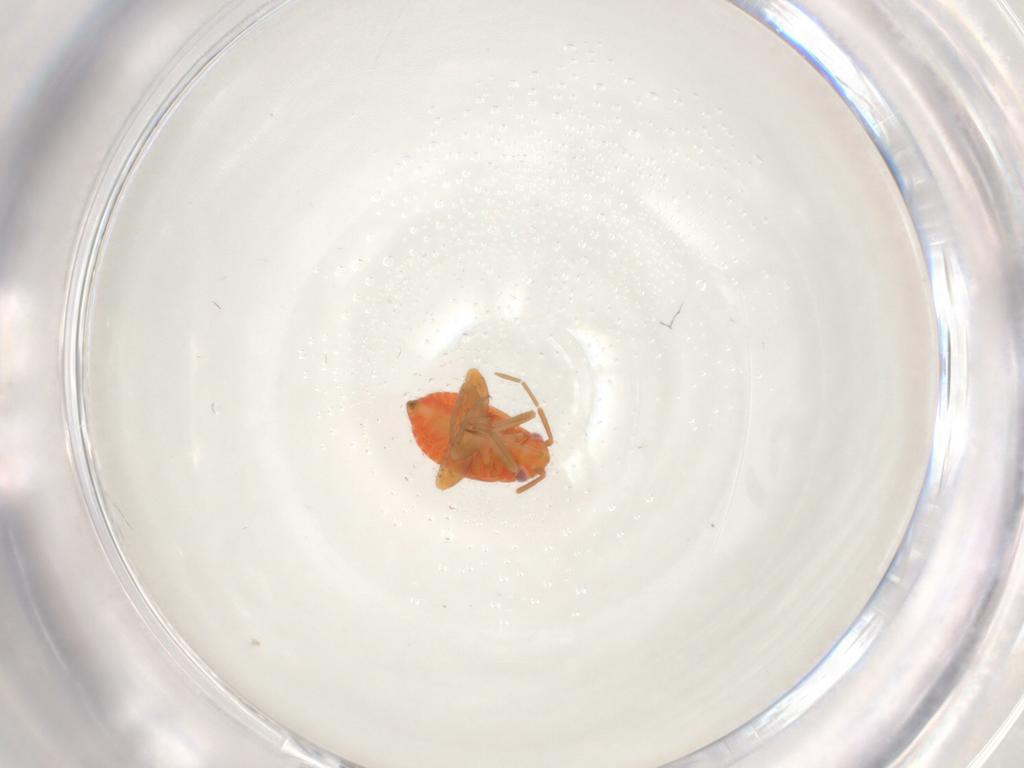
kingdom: Animalia
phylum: Arthropoda
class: Insecta
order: Hemiptera
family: Miridae
